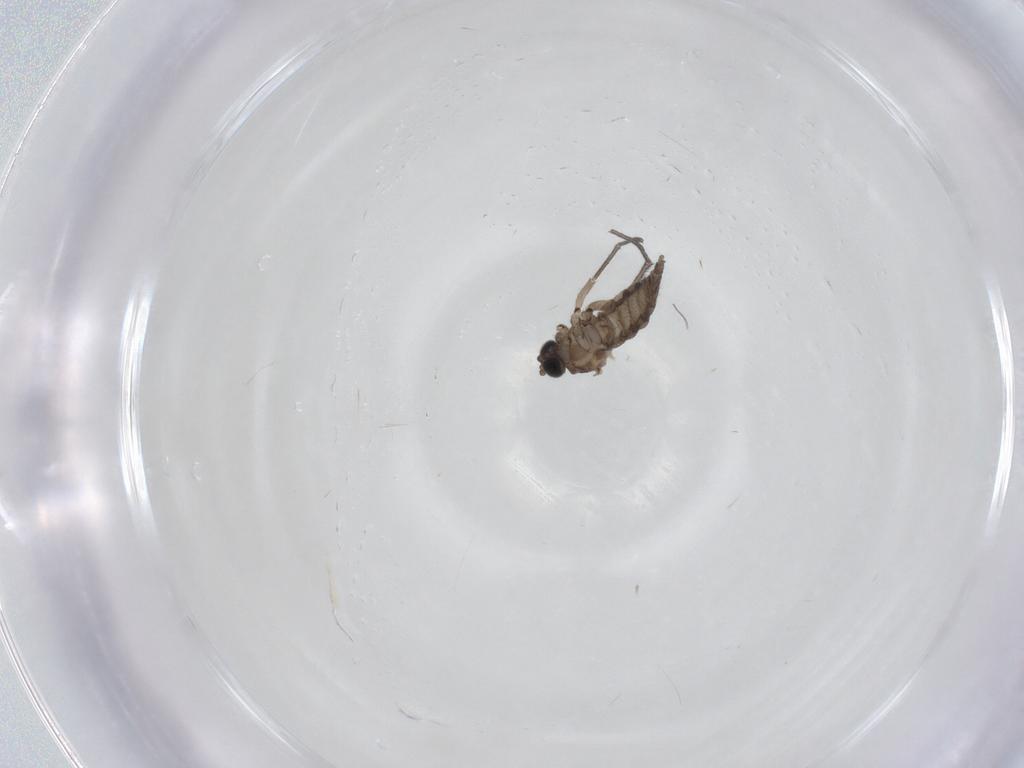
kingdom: Animalia
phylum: Arthropoda
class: Insecta
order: Diptera
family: Sciaridae
